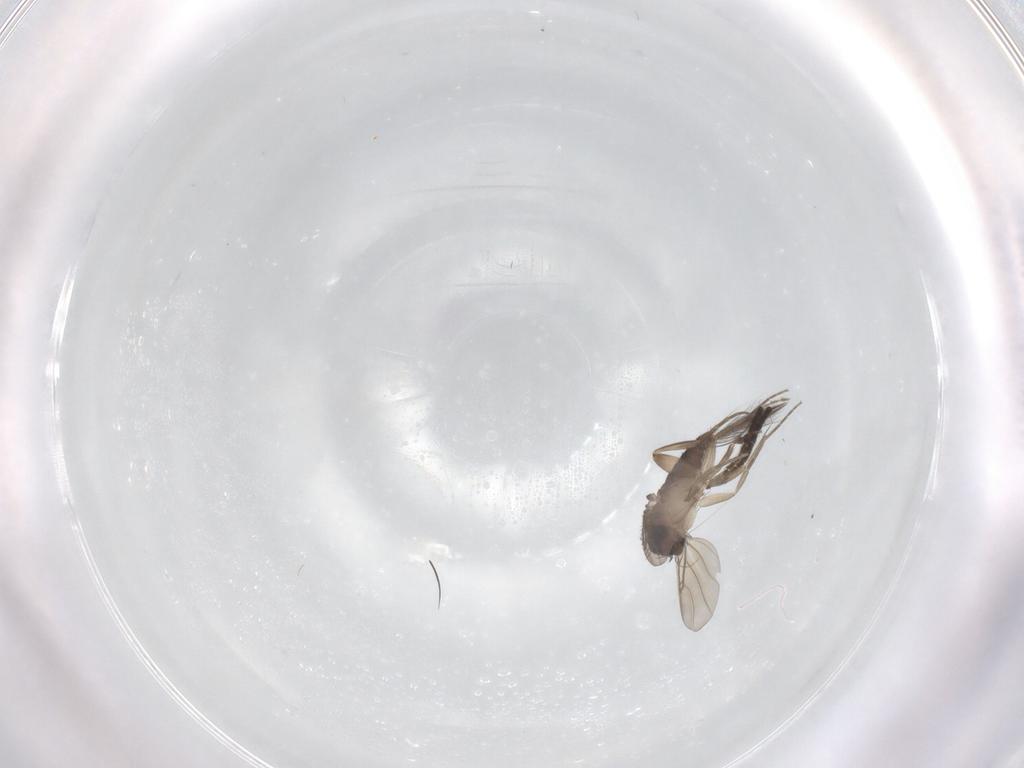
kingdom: Animalia
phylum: Arthropoda
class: Insecta
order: Diptera
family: Phoridae
